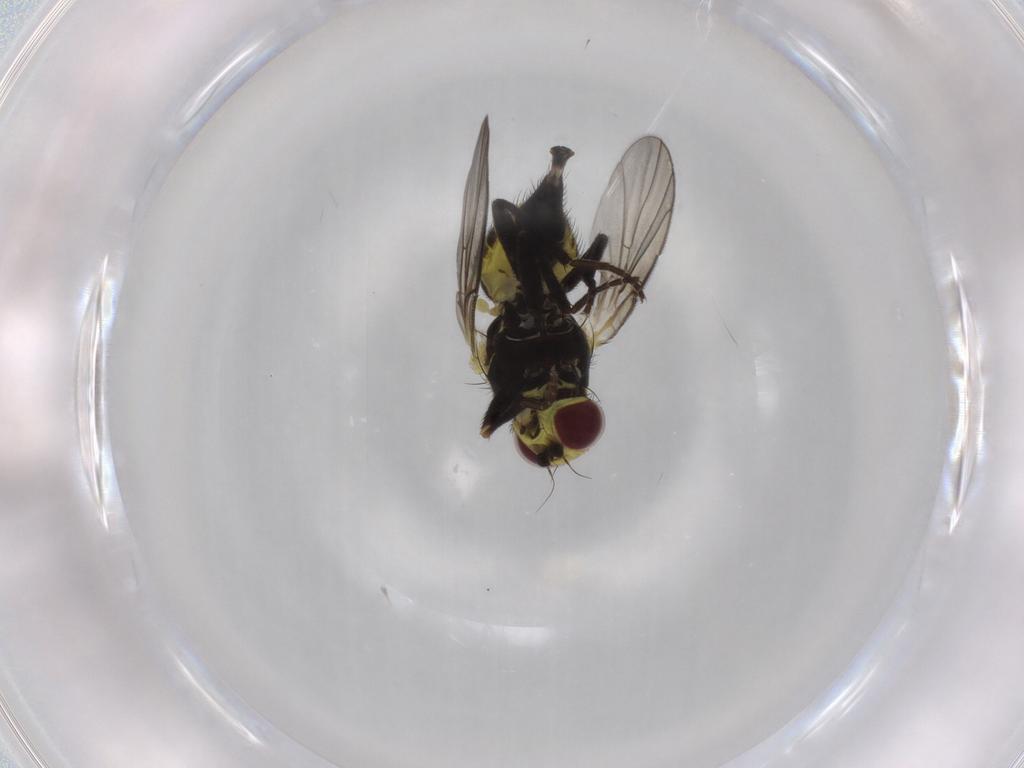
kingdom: Animalia
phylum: Arthropoda
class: Insecta
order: Diptera
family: Agromyzidae
